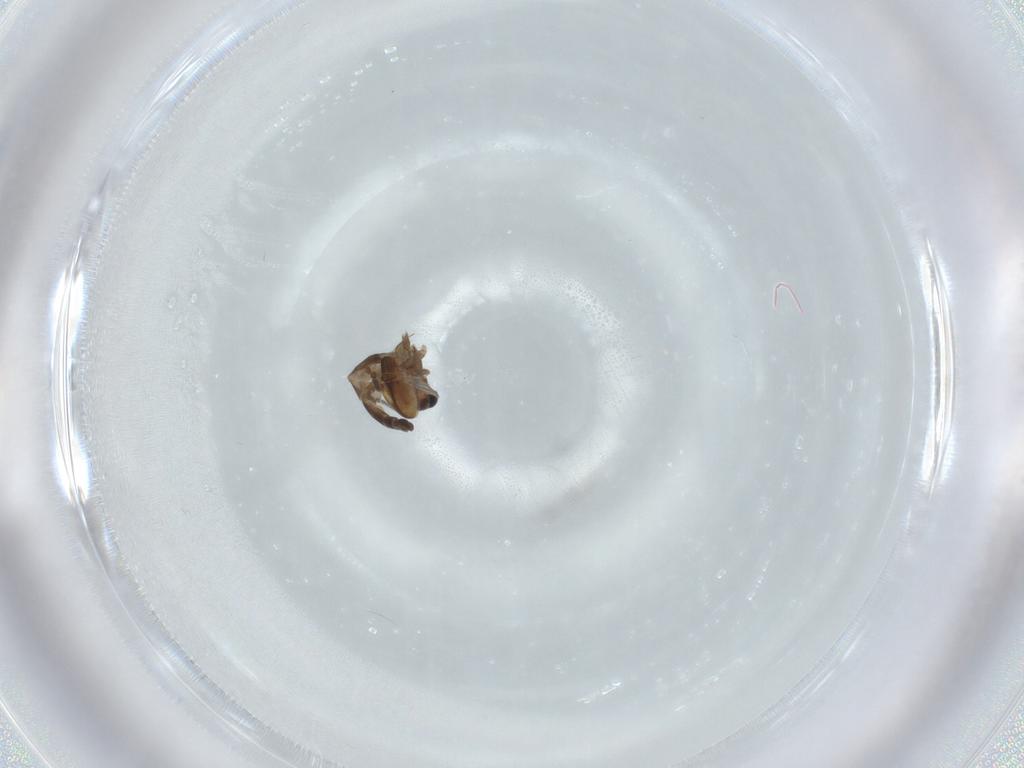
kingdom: Animalia
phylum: Arthropoda
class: Insecta
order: Diptera
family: Sciaridae
